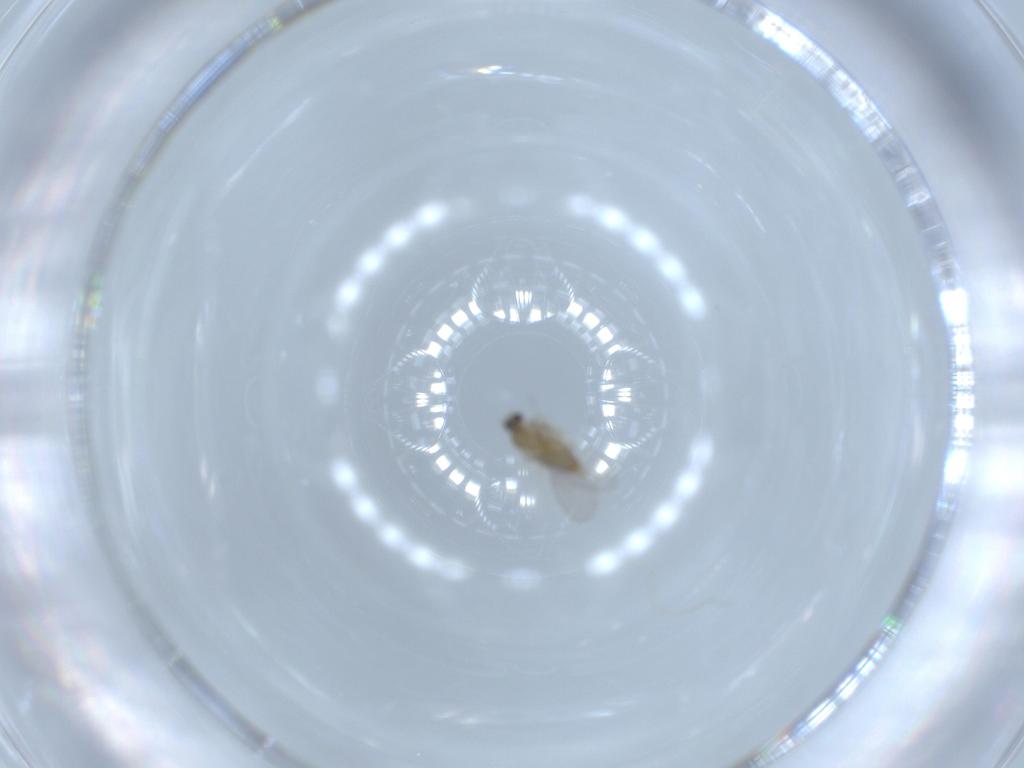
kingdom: Animalia
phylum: Arthropoda
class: Insecta
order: Diptera
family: Cecidomyiidae
